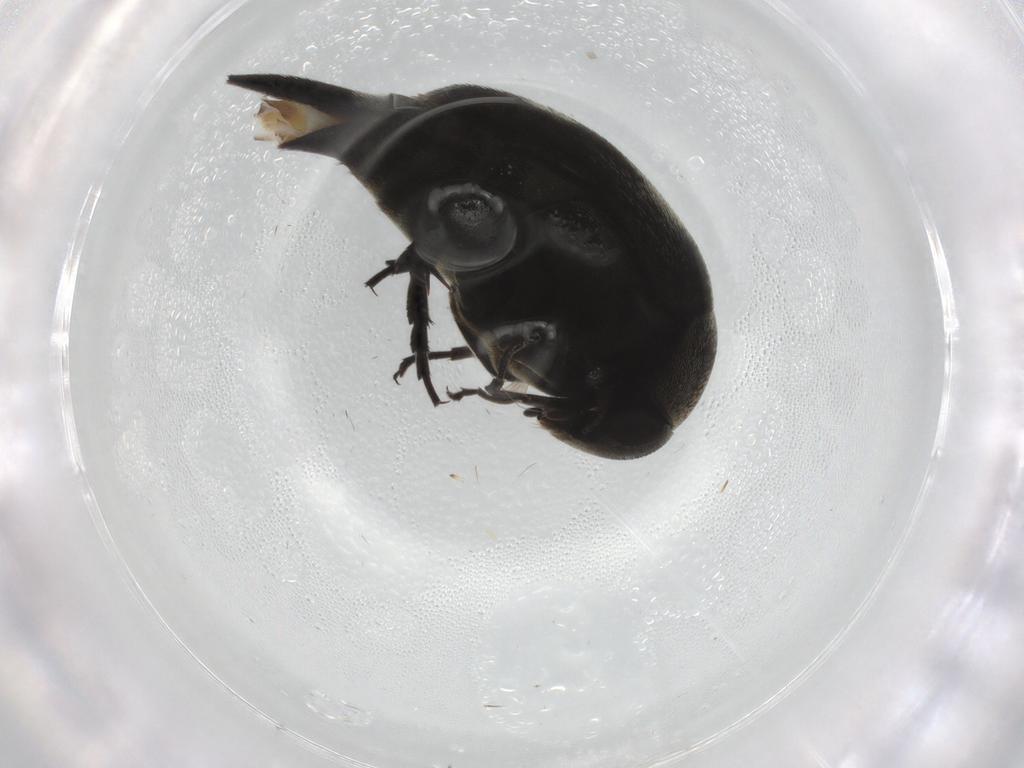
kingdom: Animalia
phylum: Arthropoda
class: Insecta
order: Coleoptera
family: Mordellidae
